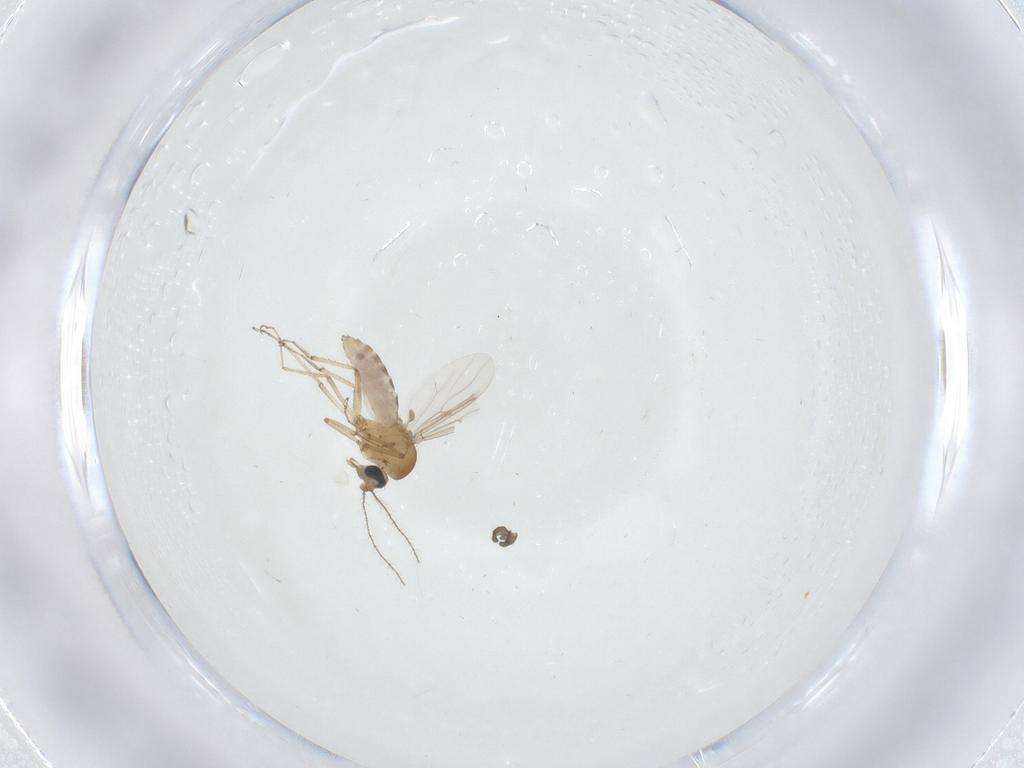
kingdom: Animalia
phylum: Arthropoda
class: Insecta
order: Diptera
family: Sciaridae
